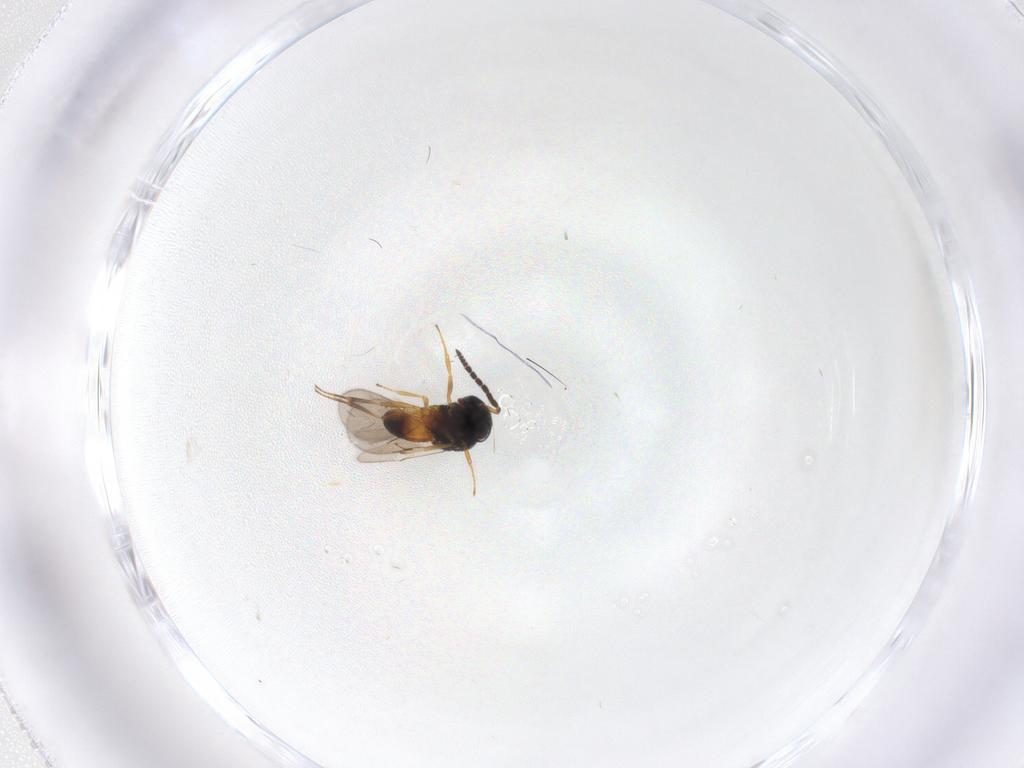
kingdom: Animalia
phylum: Arthropoda
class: Insecta
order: Hymenoptera
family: Scelionidae
